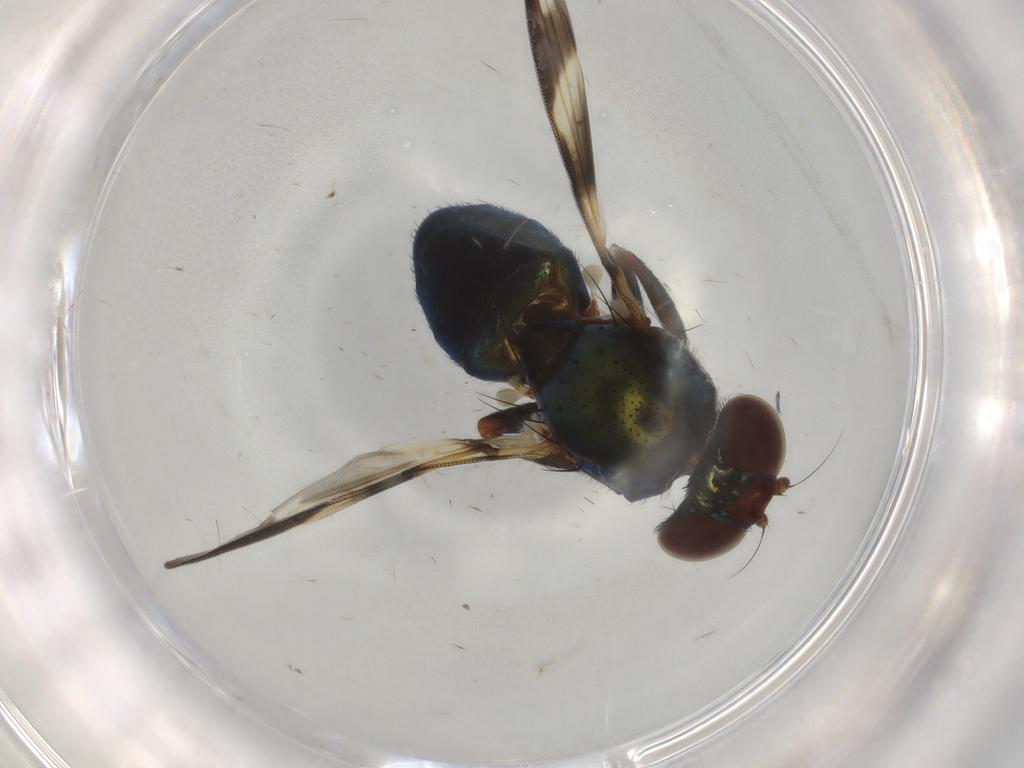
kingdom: Animalia
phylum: Arthropoda
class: Insecta
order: Diptera
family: Ulidiidae
